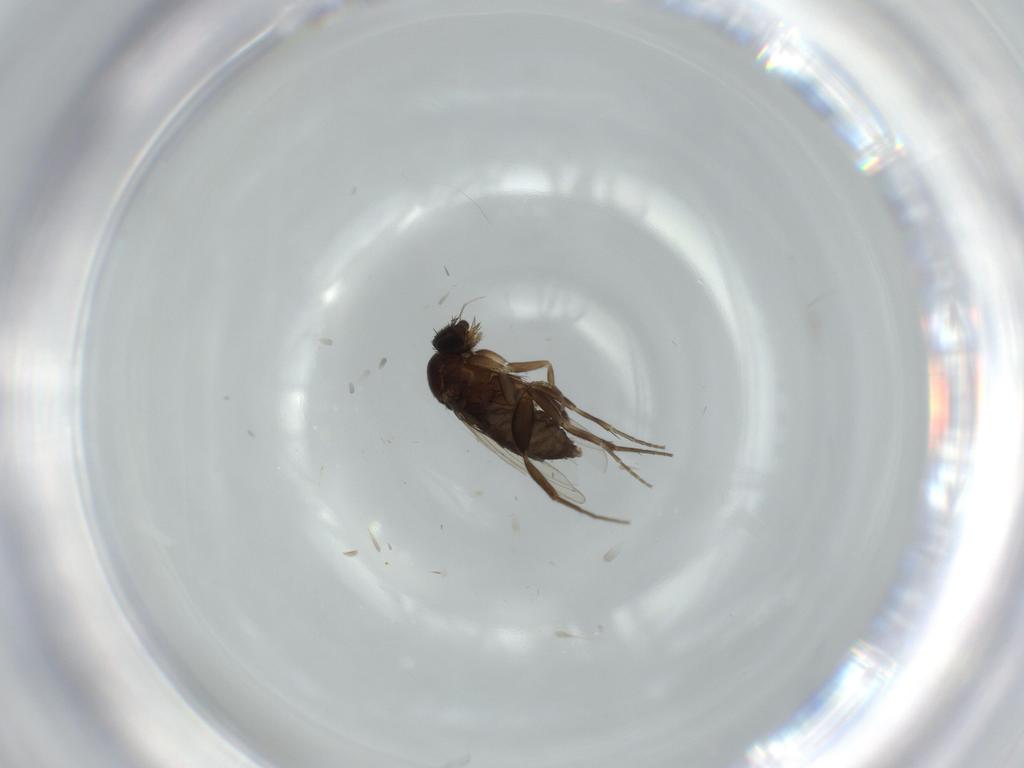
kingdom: Animalia
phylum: Arthropoda
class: Insecta
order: Diptera
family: Phoridae
